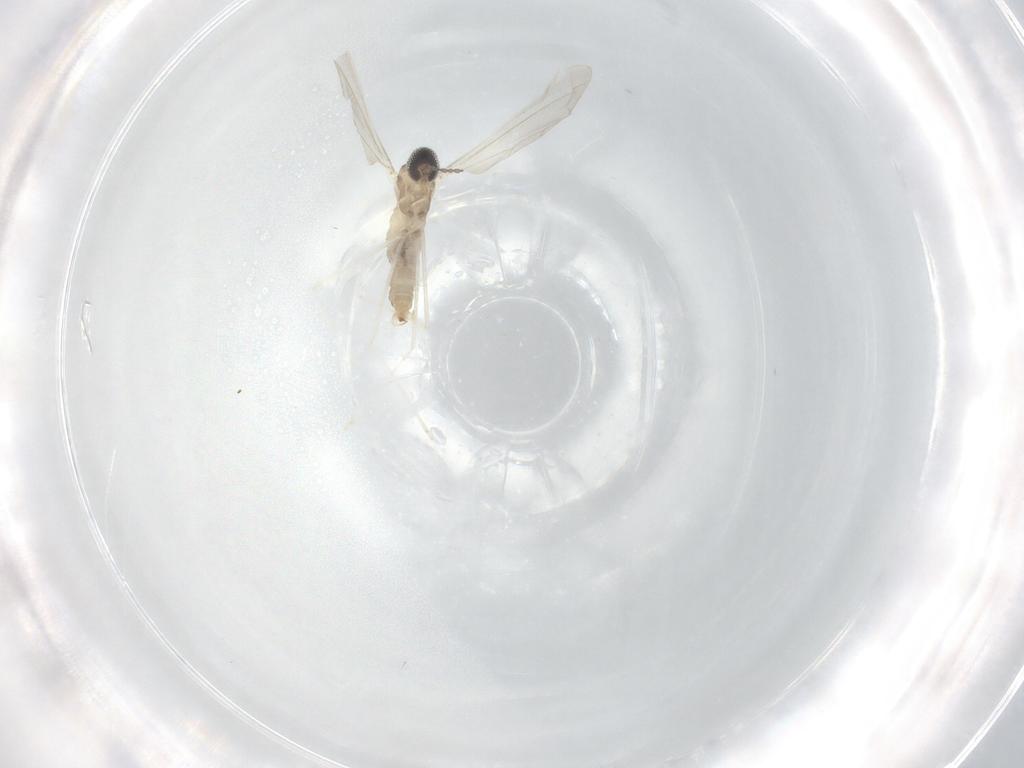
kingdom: Animalia
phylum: Arthropoda
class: Insecta
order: Diptera
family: Cecidomyiidae
